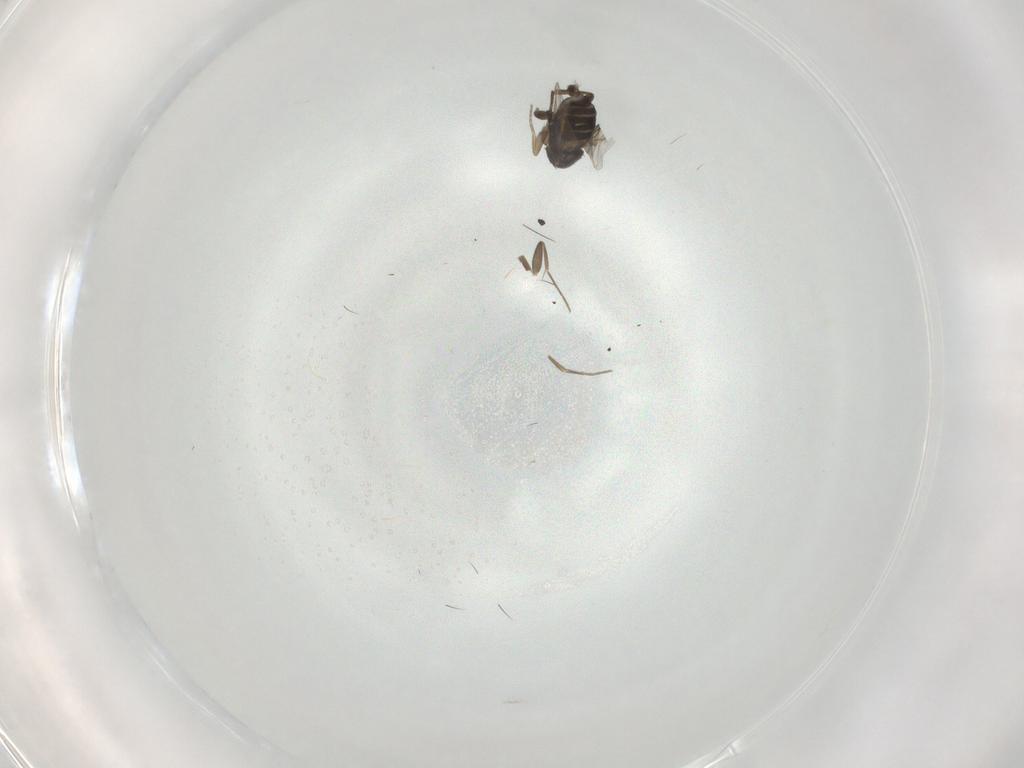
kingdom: Animalia
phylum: Arthropoda
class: Insecta
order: Diptera
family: Phoridae
